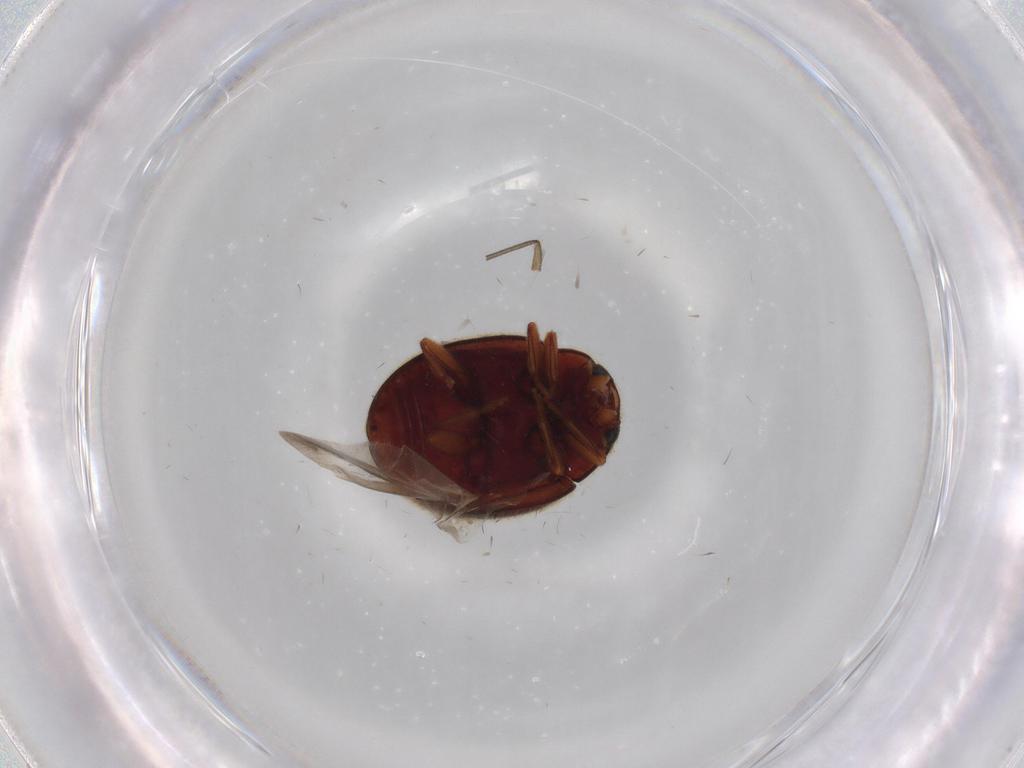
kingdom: Animalia
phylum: Arthropoda
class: Insecta
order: Coleoptera
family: Coccinellidae
